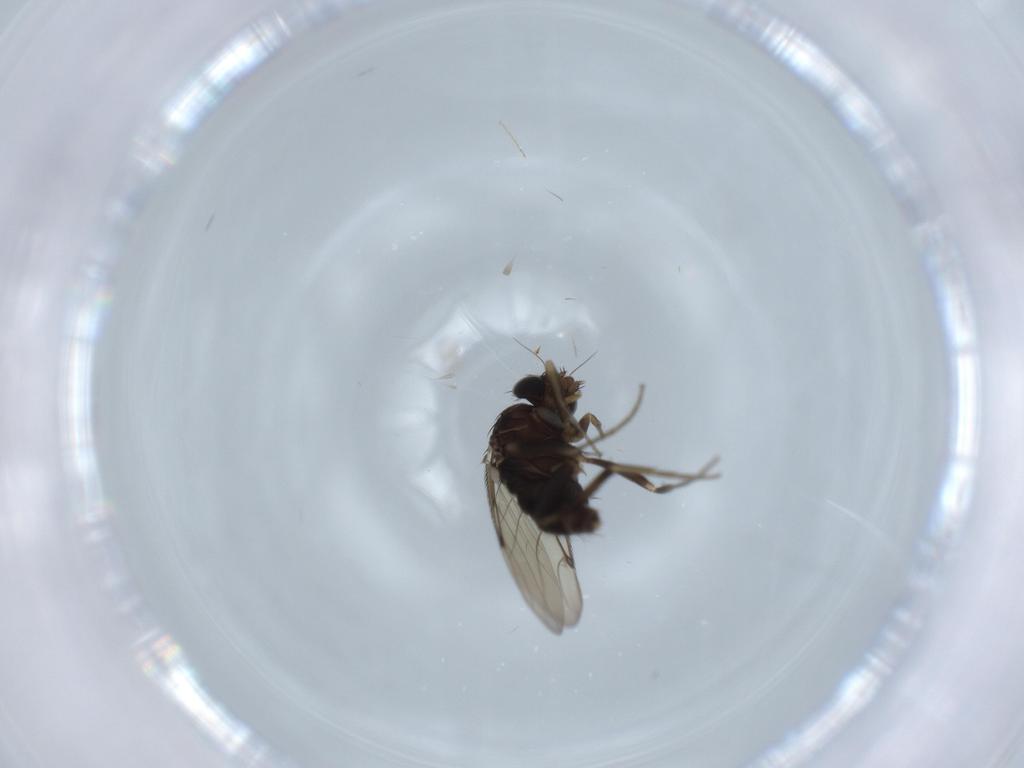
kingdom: Animalia
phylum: Arthropoda
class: Insecta
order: Diptera
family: Phoridae
